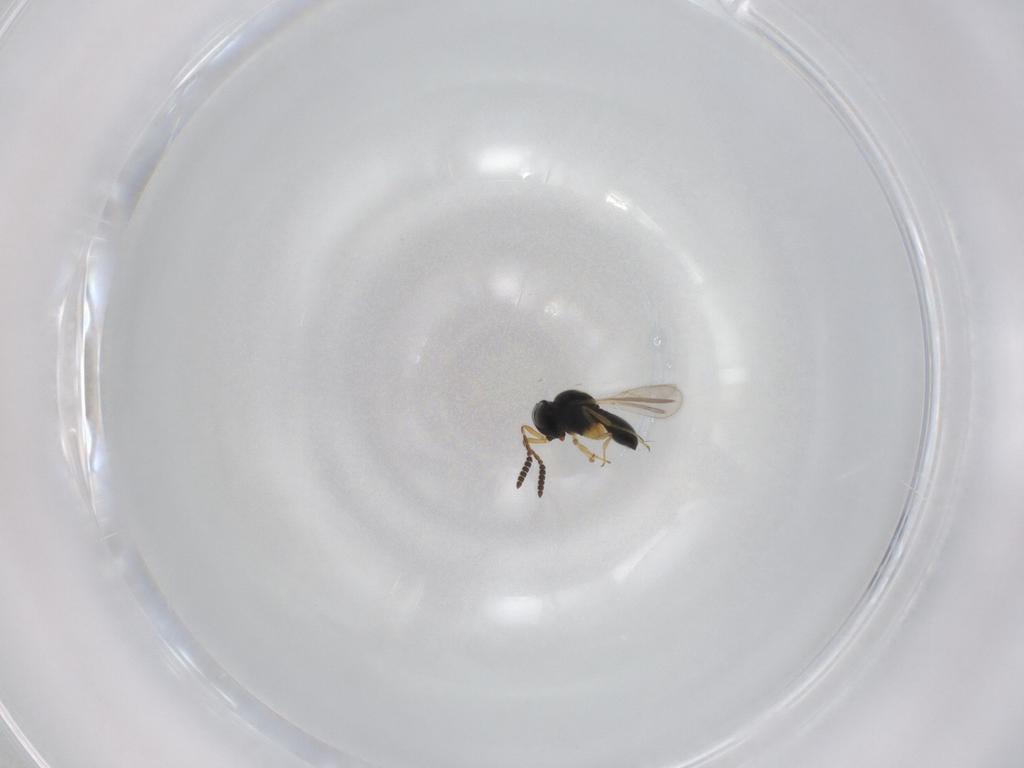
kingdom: Animalia
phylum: Arthropoda
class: Insecta
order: Hymenoptera
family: Scelionidae
